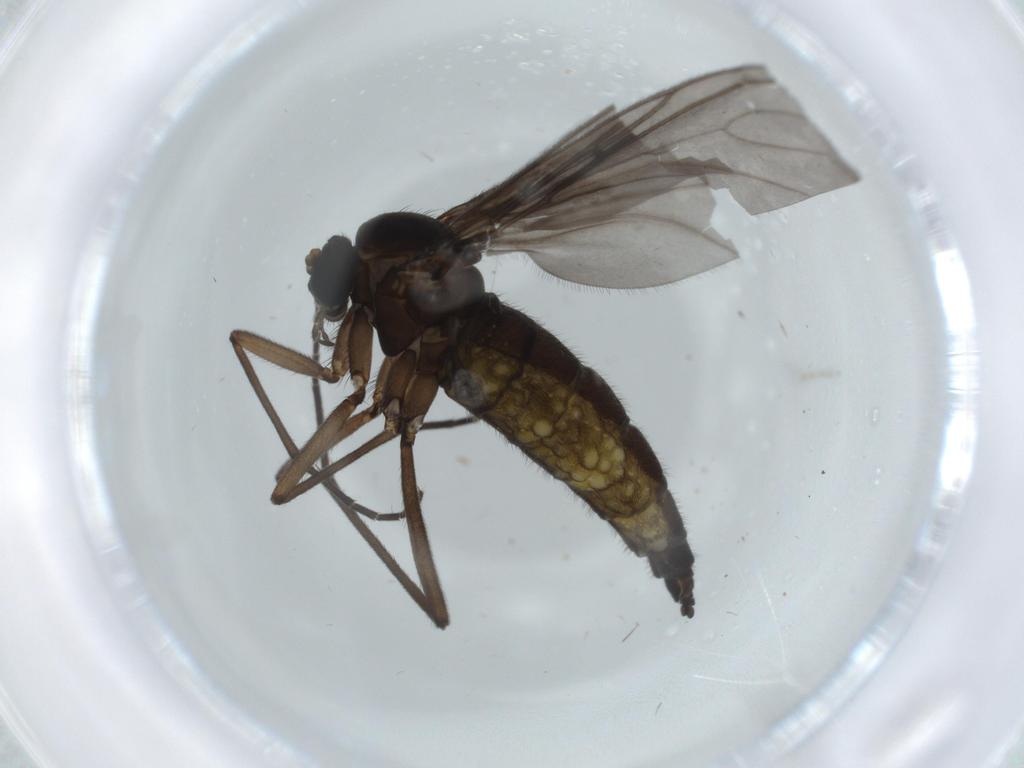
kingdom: Animalia
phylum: Arthropoda
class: Insecta
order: Diptera
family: Sciaridae
